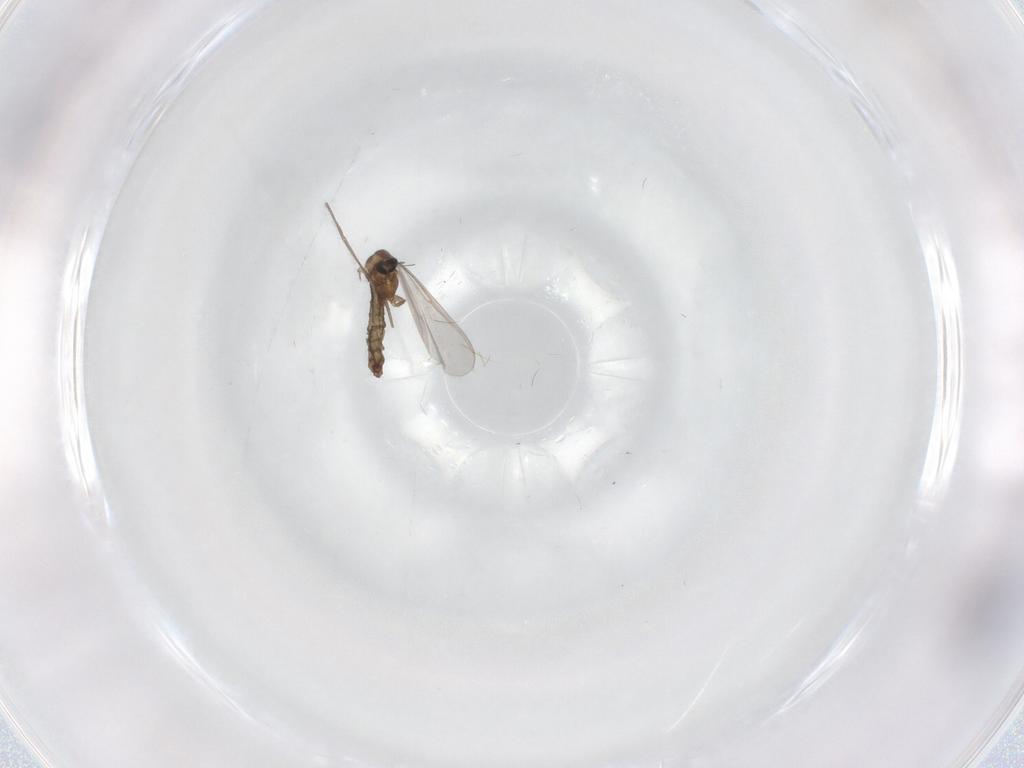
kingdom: Animalia
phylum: Arthropoda
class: Insecta
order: Diptera
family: Chironomidae
